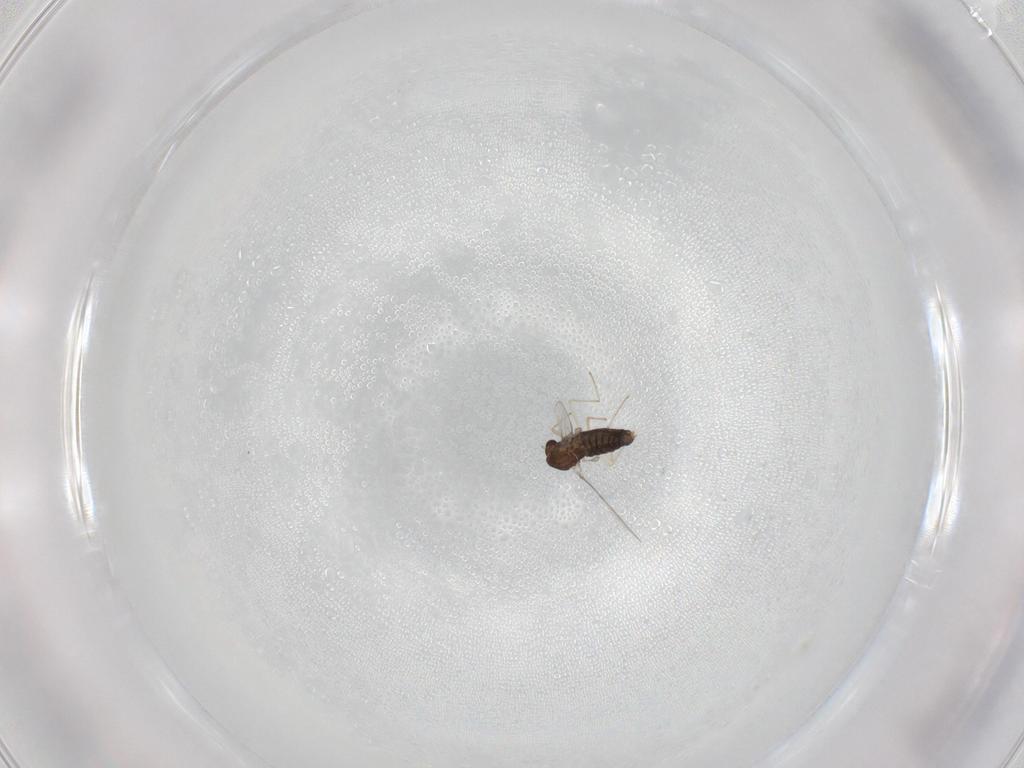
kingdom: Animalia
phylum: Arthropoda
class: Insecta
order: Diptera
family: Chironomidae
